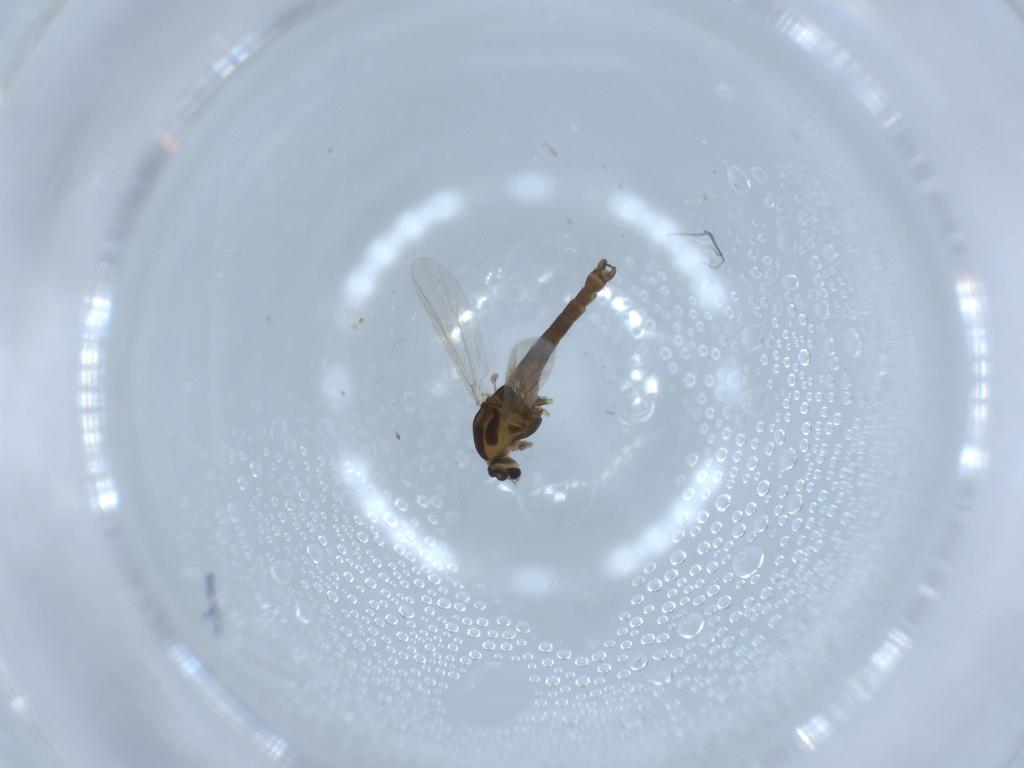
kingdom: Animalia
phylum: Arthropoda
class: Insecta
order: Diptera
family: Chironomidae
